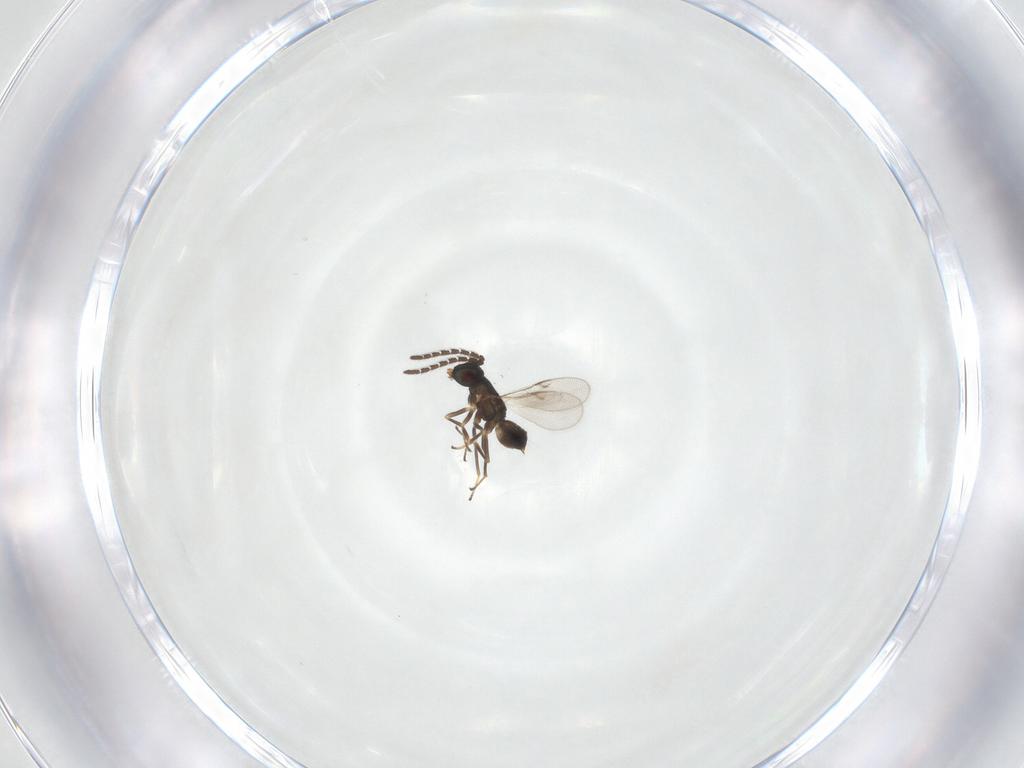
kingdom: Animalia
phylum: Arthropoda
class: Insecta
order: Hymenoptera
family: Encyrtidae
